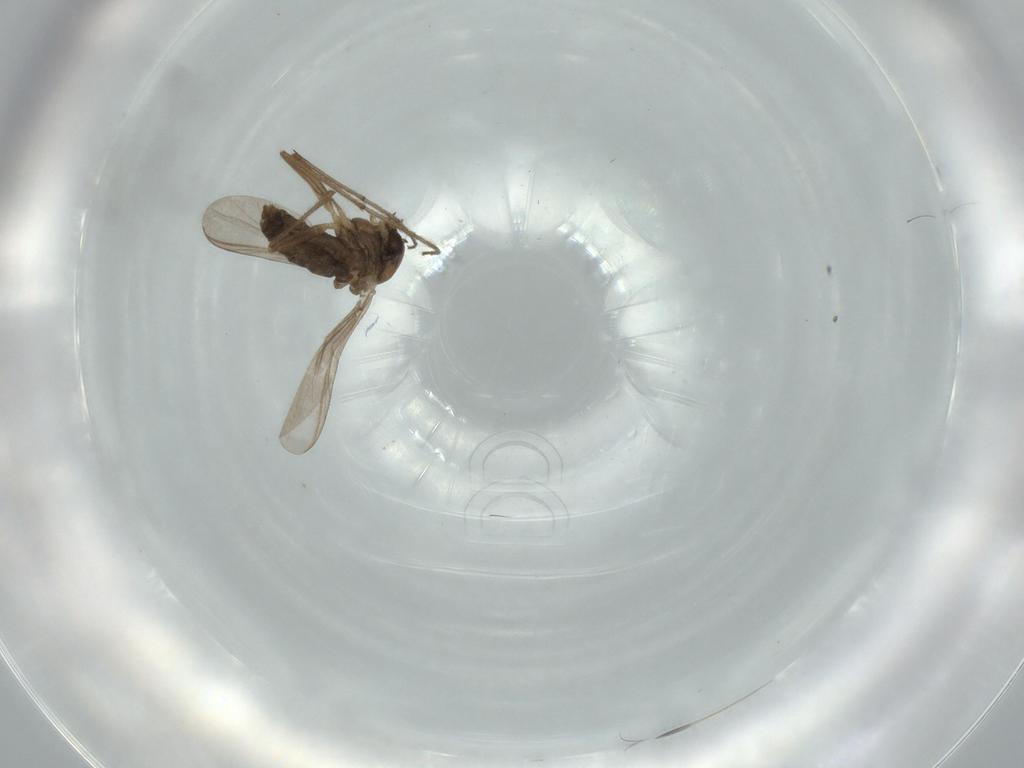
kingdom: Animalia
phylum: Arthropoda
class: Insecta
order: Diptera
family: Chironomidae
